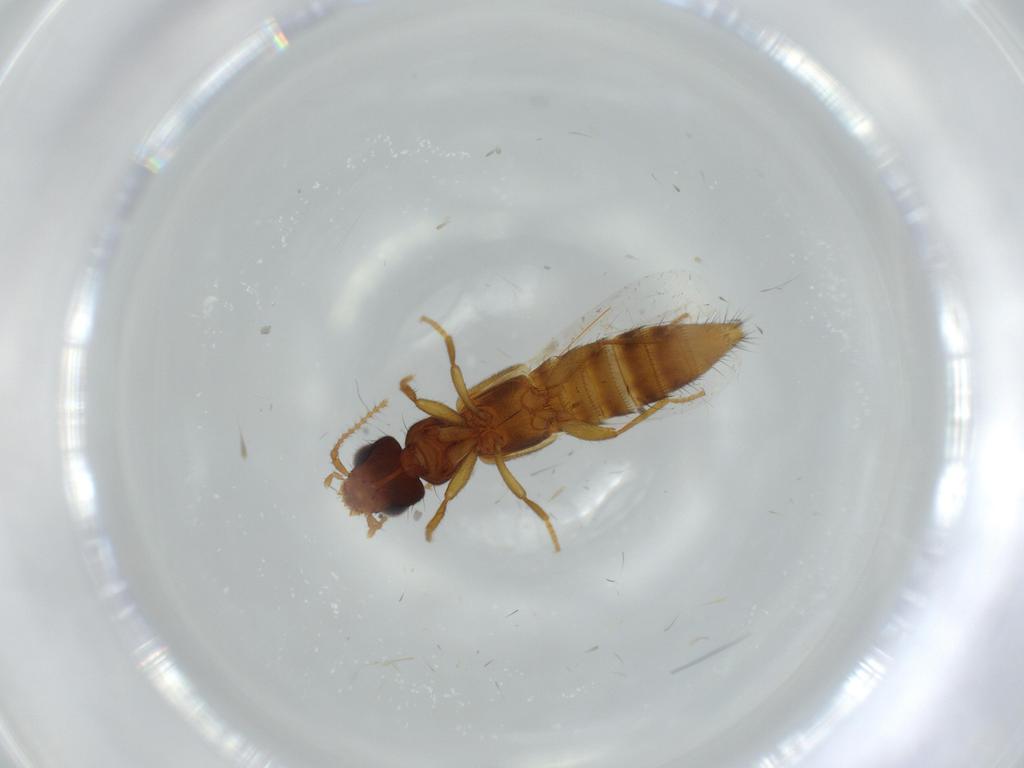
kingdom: Animalia
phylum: Arthropoda
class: Insecta
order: Coleoptera
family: Staphylinidae
